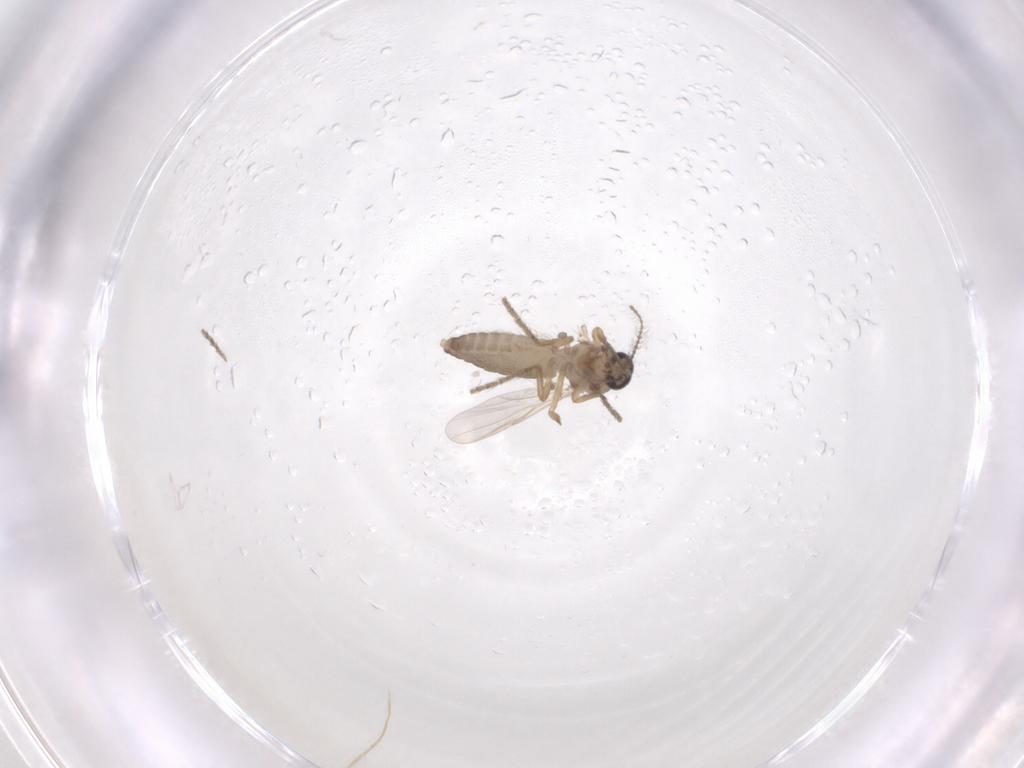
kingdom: Animalia
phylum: Arthropoda
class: Insecta
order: Diptera
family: Ceratopogonidae
